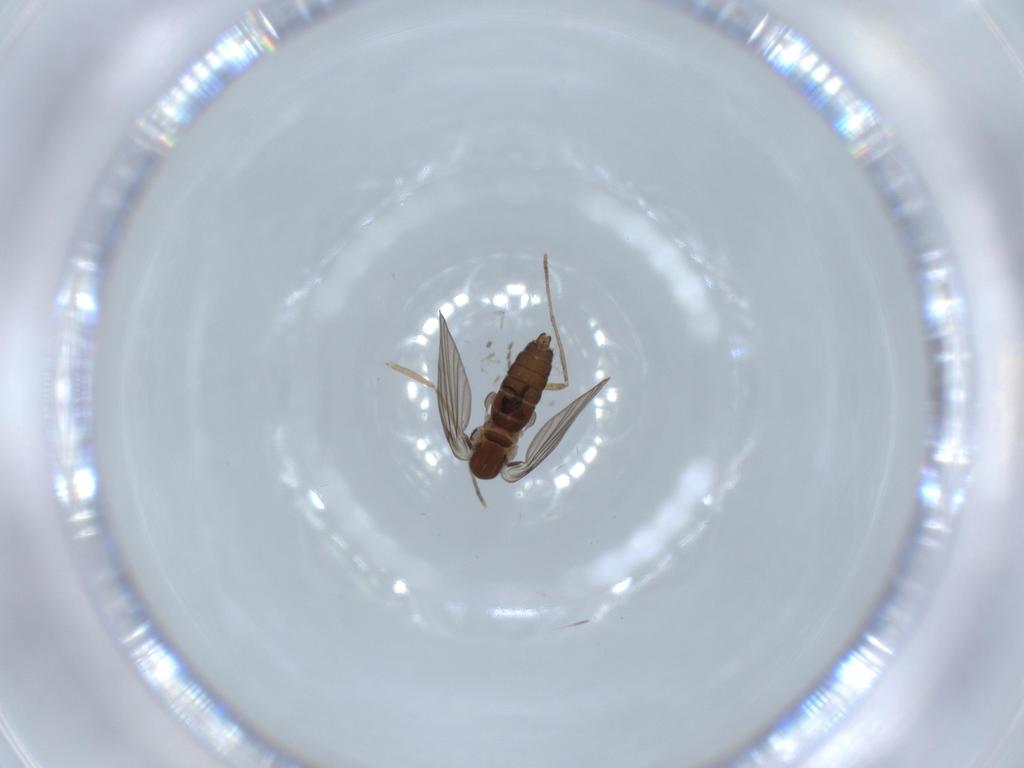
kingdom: Animalia
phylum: Arthropoda
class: Insecta
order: Diptera
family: Psychodidae
